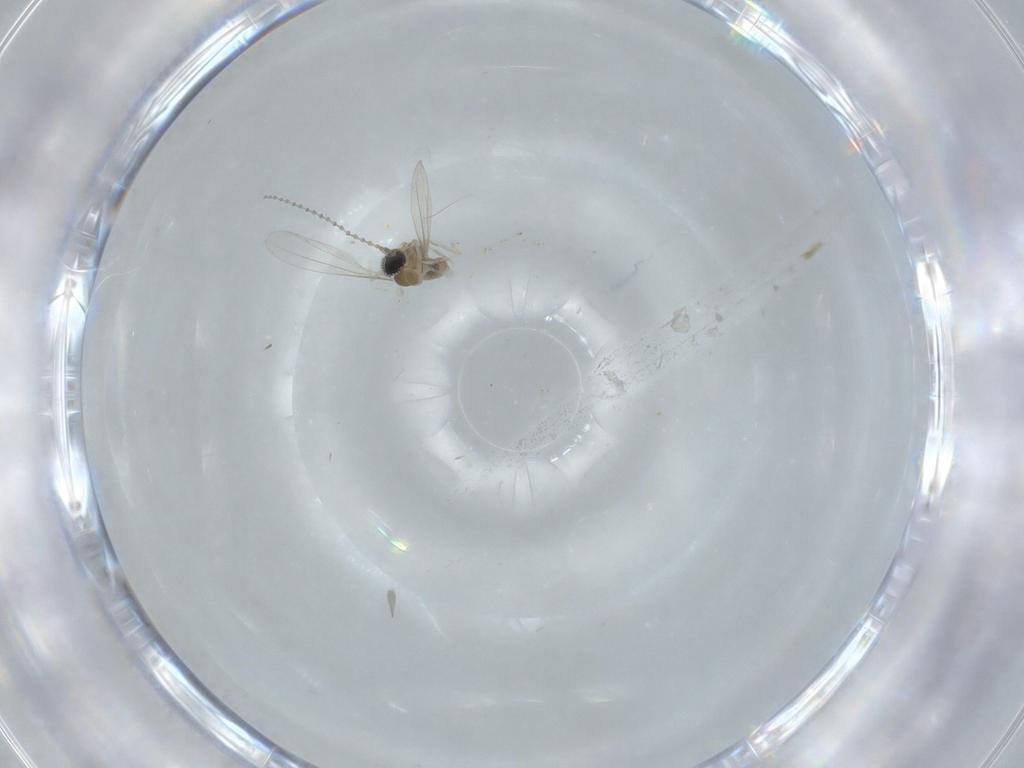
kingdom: Animalia
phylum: Arthropoda
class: Insecta
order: Diptera
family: Cecidomyiidae
